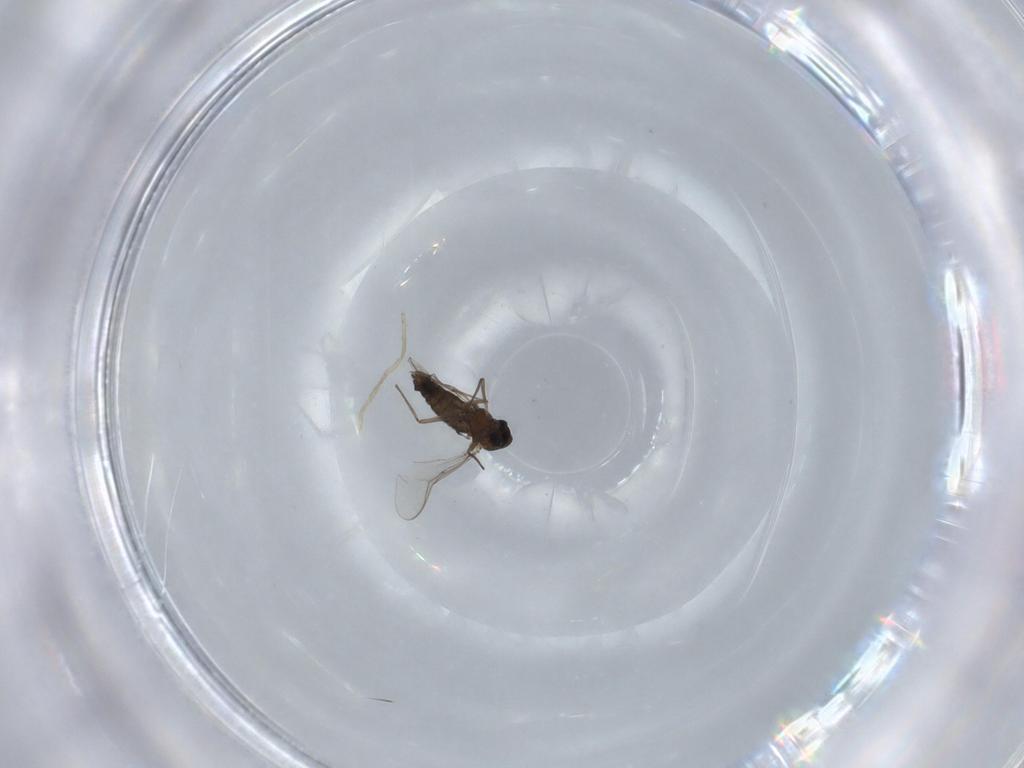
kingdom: Animalia
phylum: Arthropoda
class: Insecta
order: Diptera
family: Chironomidae
